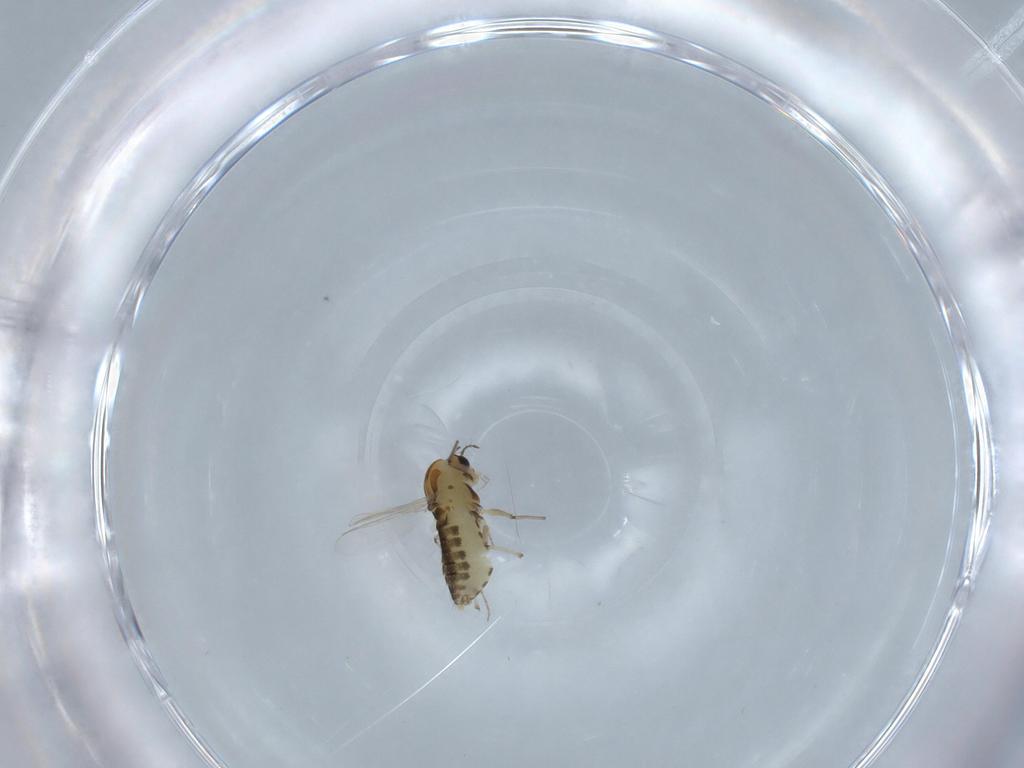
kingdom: Animalia
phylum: Arthropoda
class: Insecta
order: Diptera
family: Chironomidae
